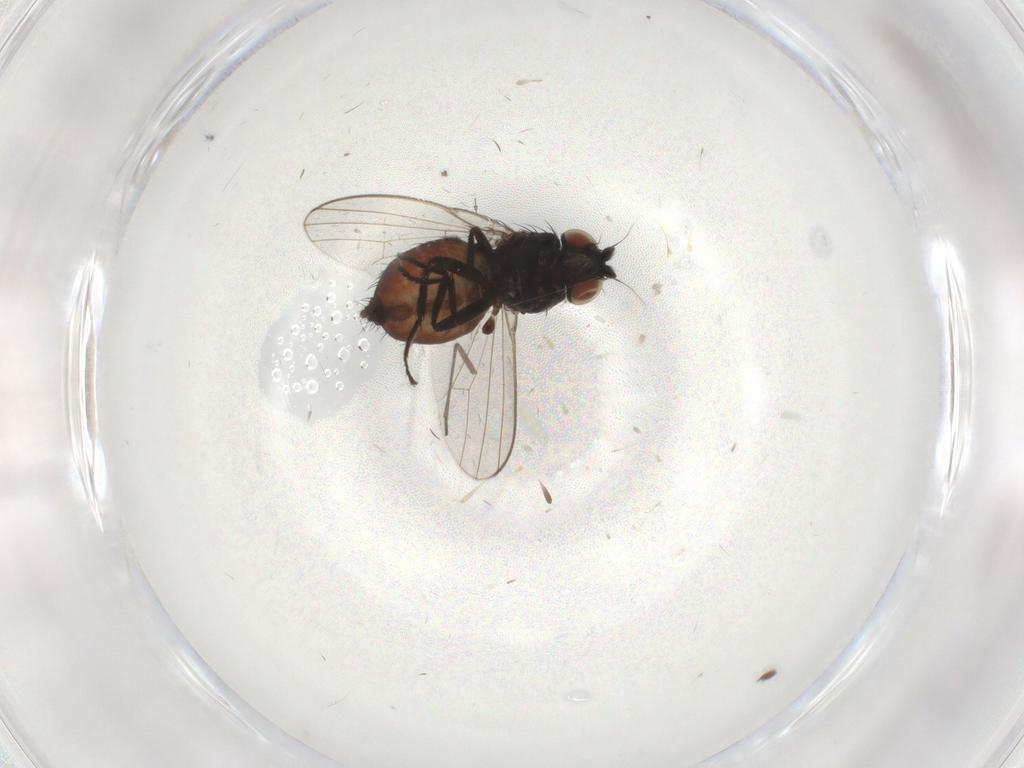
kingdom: Animalia
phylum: Arthropoda
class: Insecta
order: Diptera
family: Milichiidae
